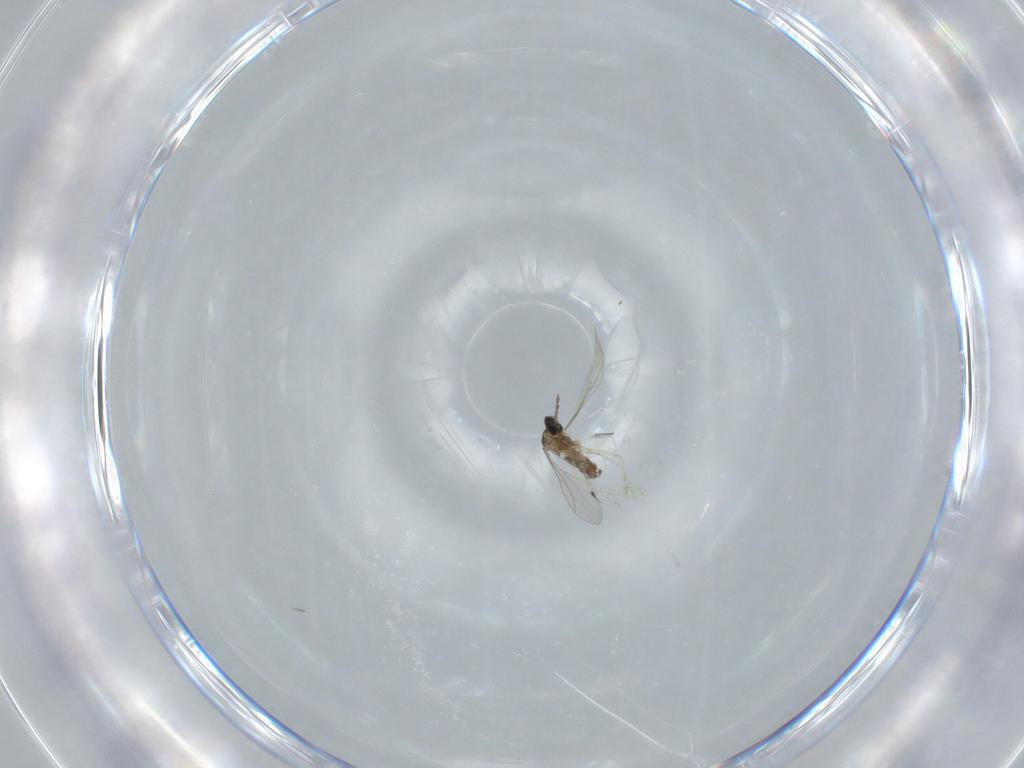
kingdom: Animalia
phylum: Arthropoda
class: Insecta
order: Diptera
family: Cecidomyiidae
